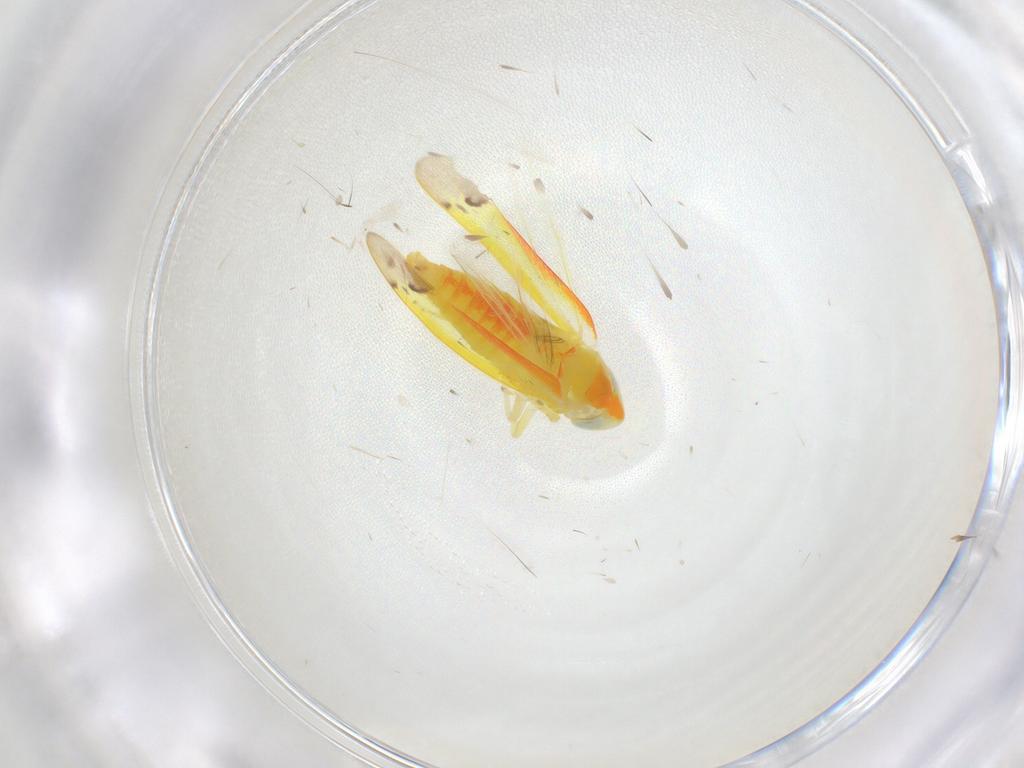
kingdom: Animalia
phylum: Arthropoda
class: Insecta
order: Hemiptera
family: Cicadellidae
